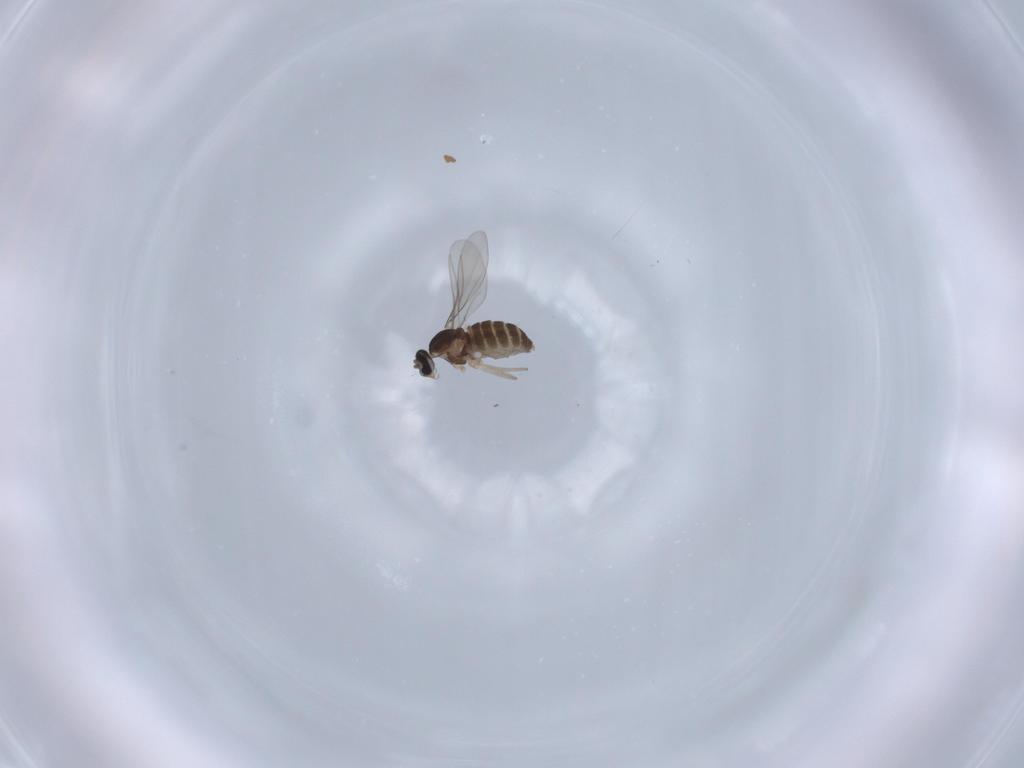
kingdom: Animalia
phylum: Arthropoda
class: Insecta
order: Diptera
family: Cecidomyiidae
